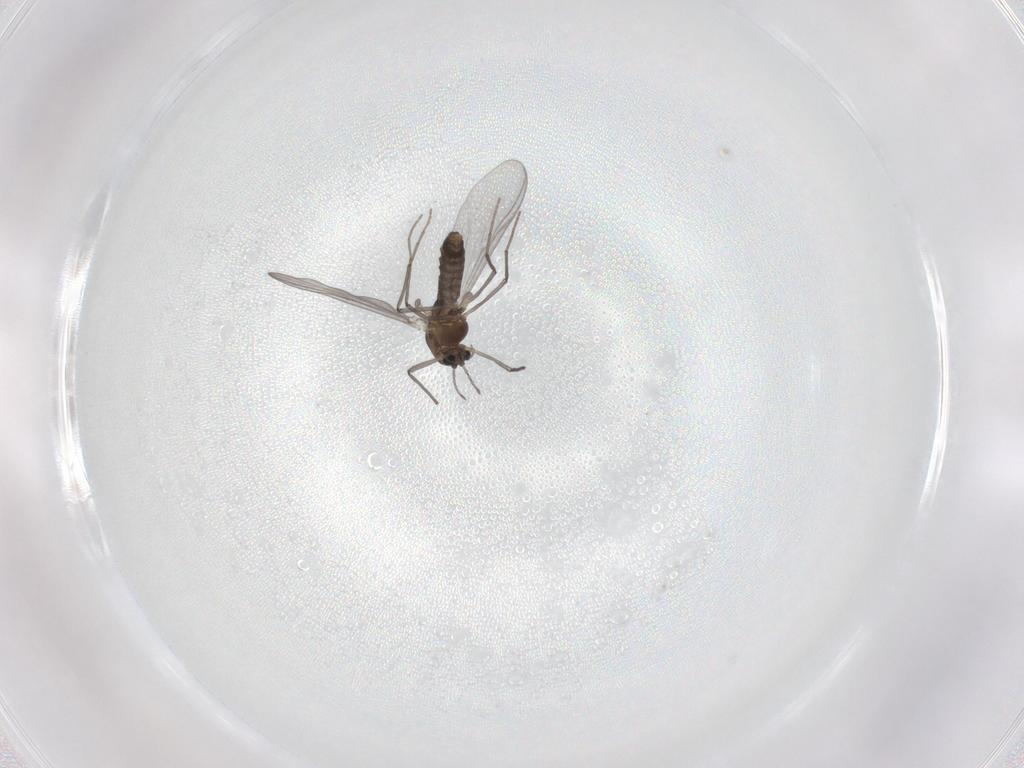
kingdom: Animalia
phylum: Arthropoda
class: Insecta
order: Diptera
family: Chironomidae
